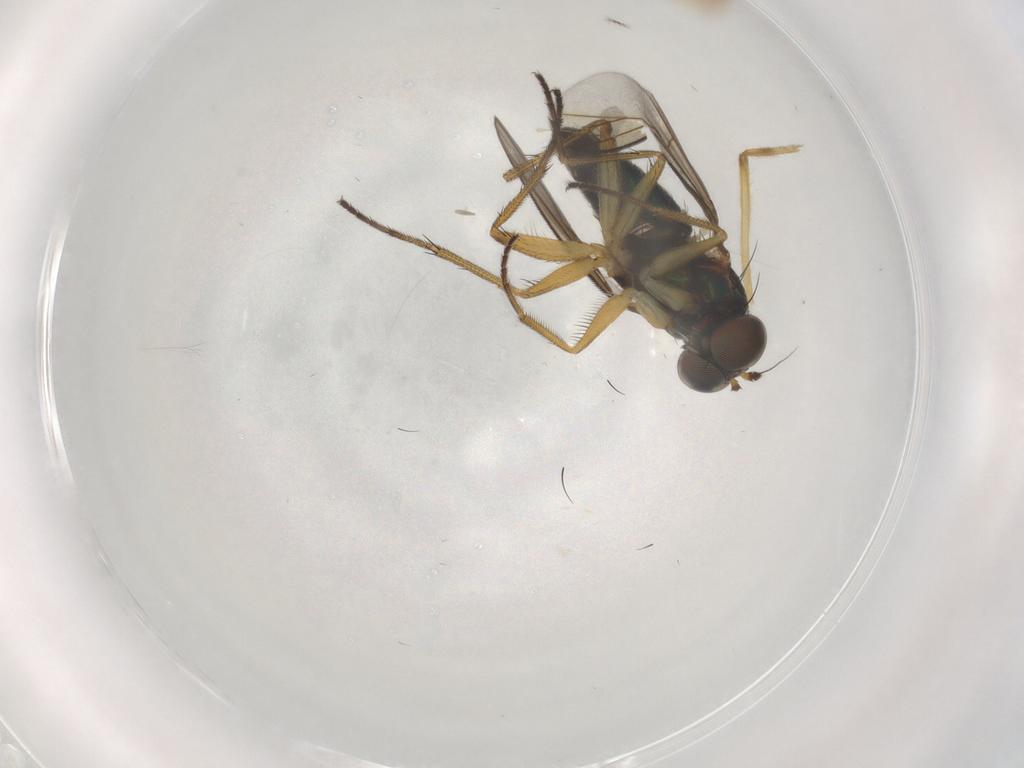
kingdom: Animalia
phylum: Arthropoda
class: Insecta
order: Diptera
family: Dolichopodidae
